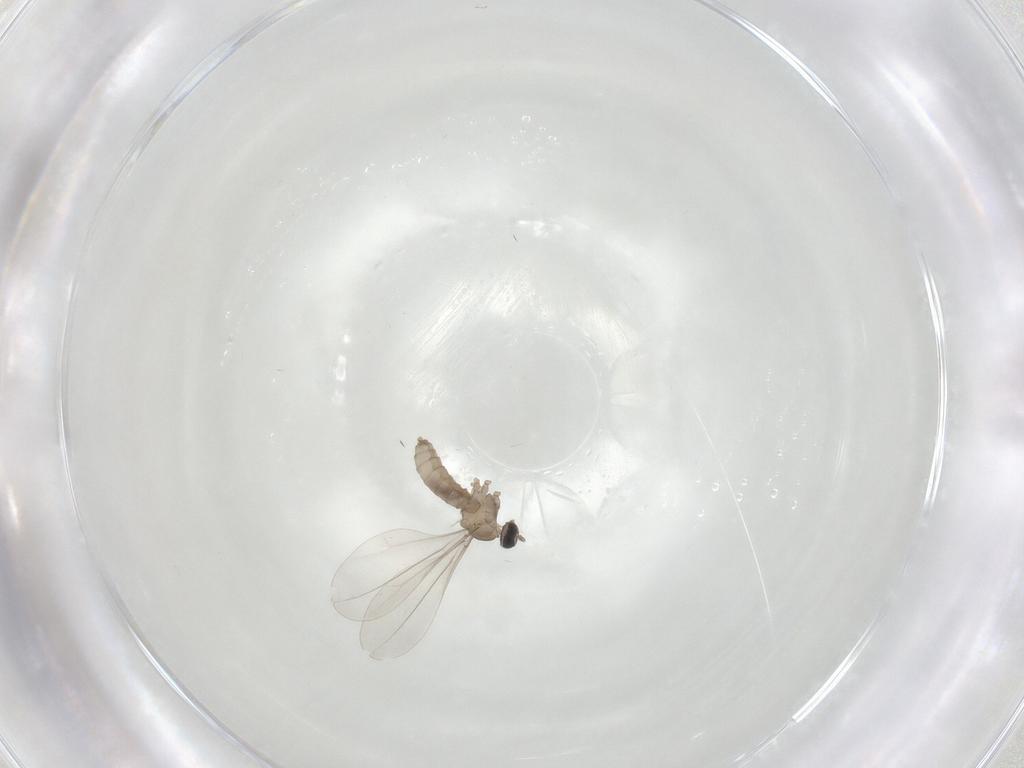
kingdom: Animalia
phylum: Arthropoda
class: Insecta
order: Diptera
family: Cecidomyiidae
